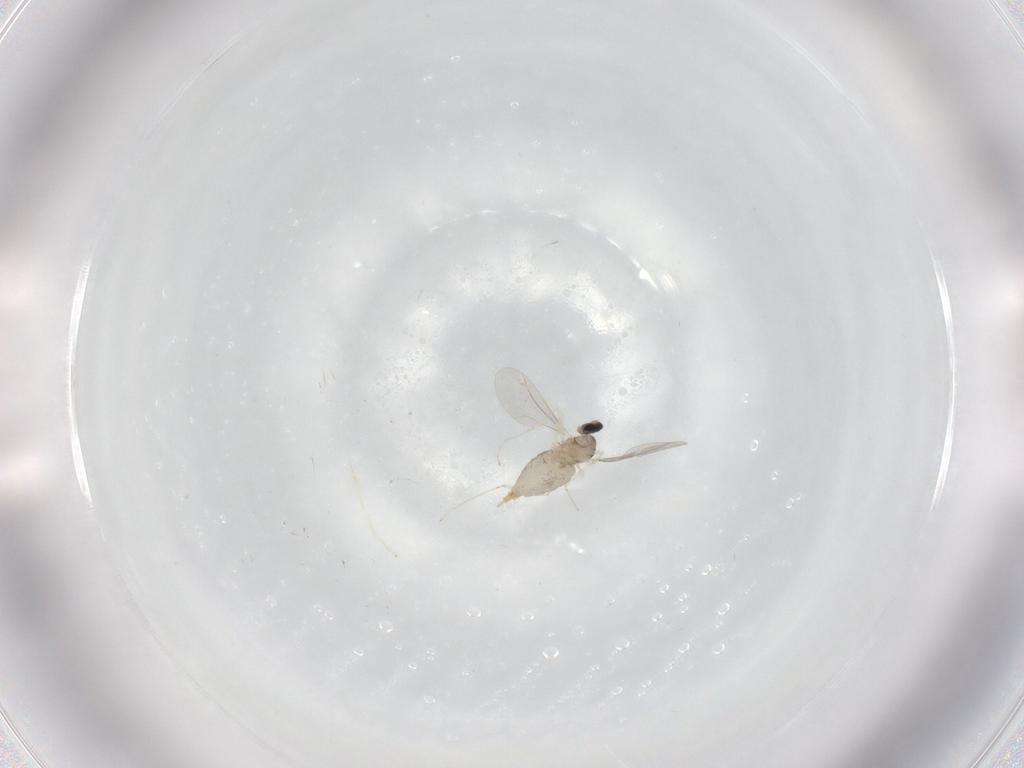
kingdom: Animalia
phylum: Arthropoda
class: Insecta
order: Diptera
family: Cecidomyiidae
